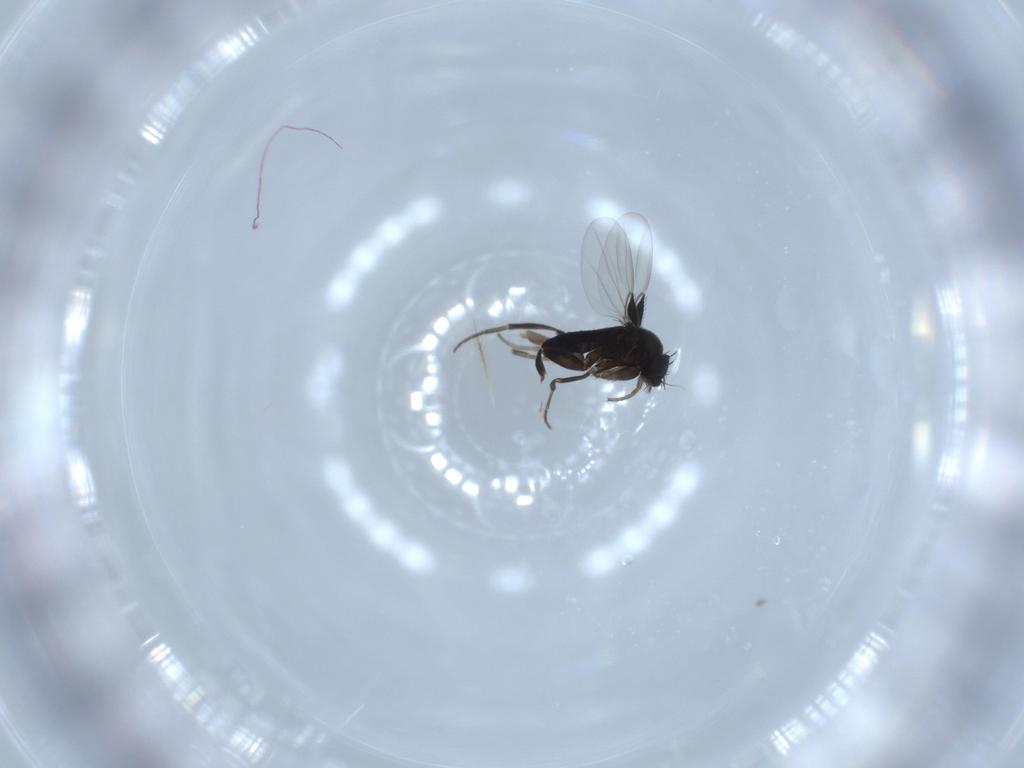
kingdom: Animalia
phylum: Arthropoda
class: Insecta
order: Diptera
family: Phoridae
